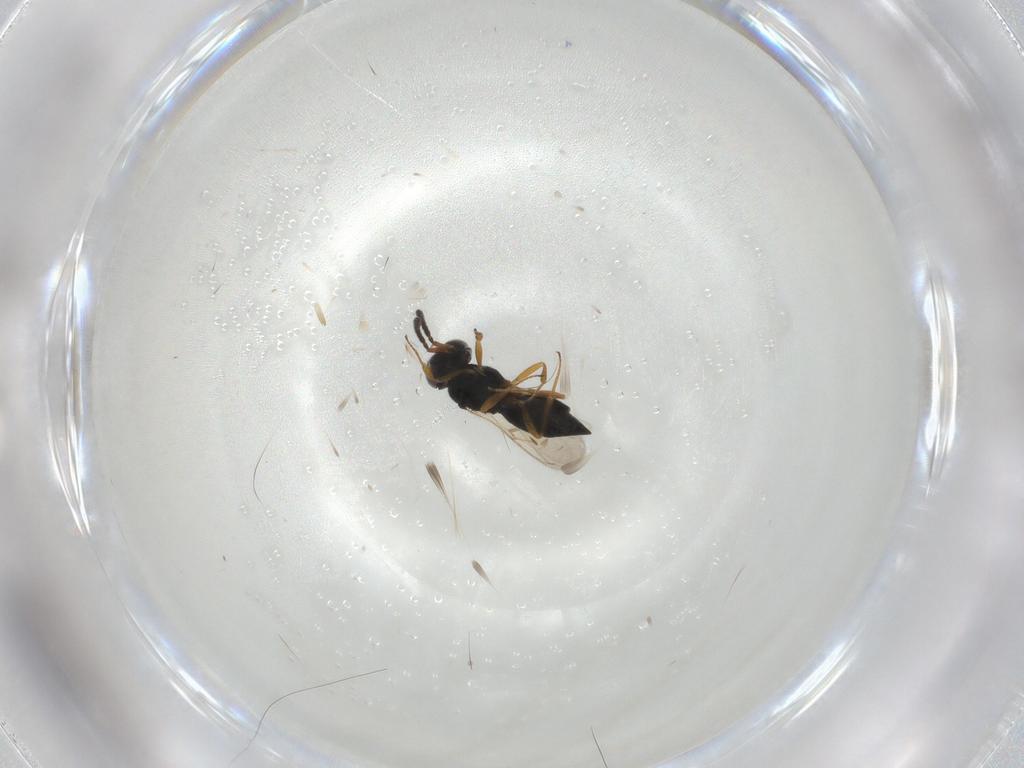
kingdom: Animalia
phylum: Arthropoda
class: Insecta
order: Hymenoptera
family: Scelionidae
